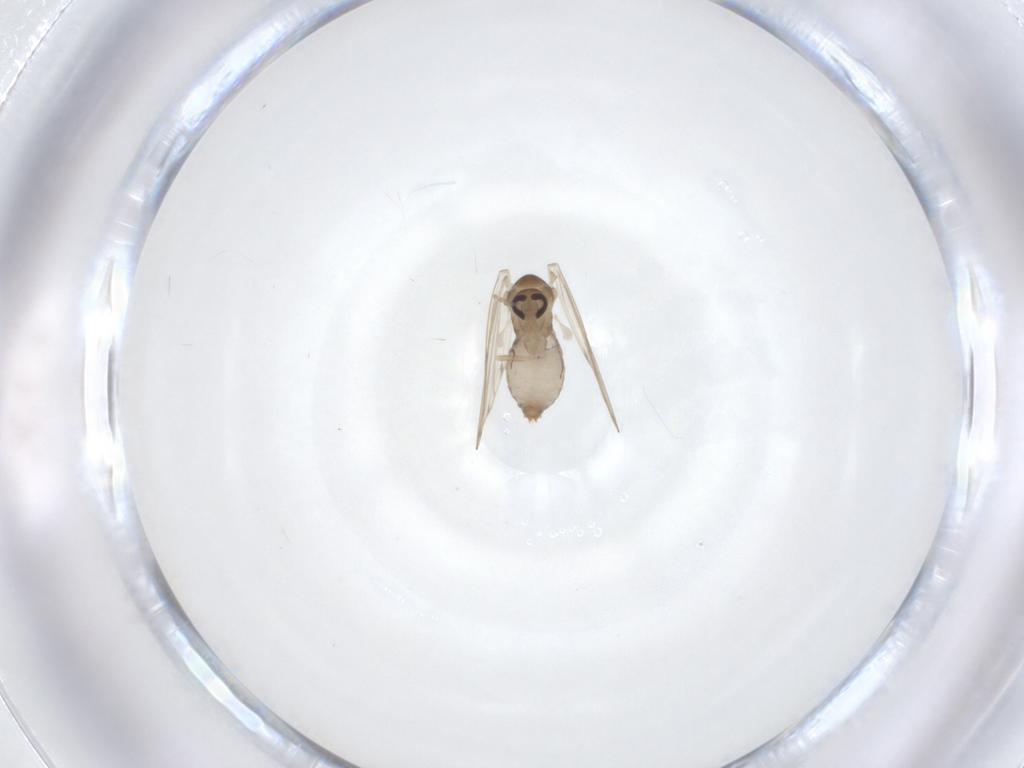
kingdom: Animalia
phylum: Arthropoda
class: Insecta
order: Diptera
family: Psychodidae
